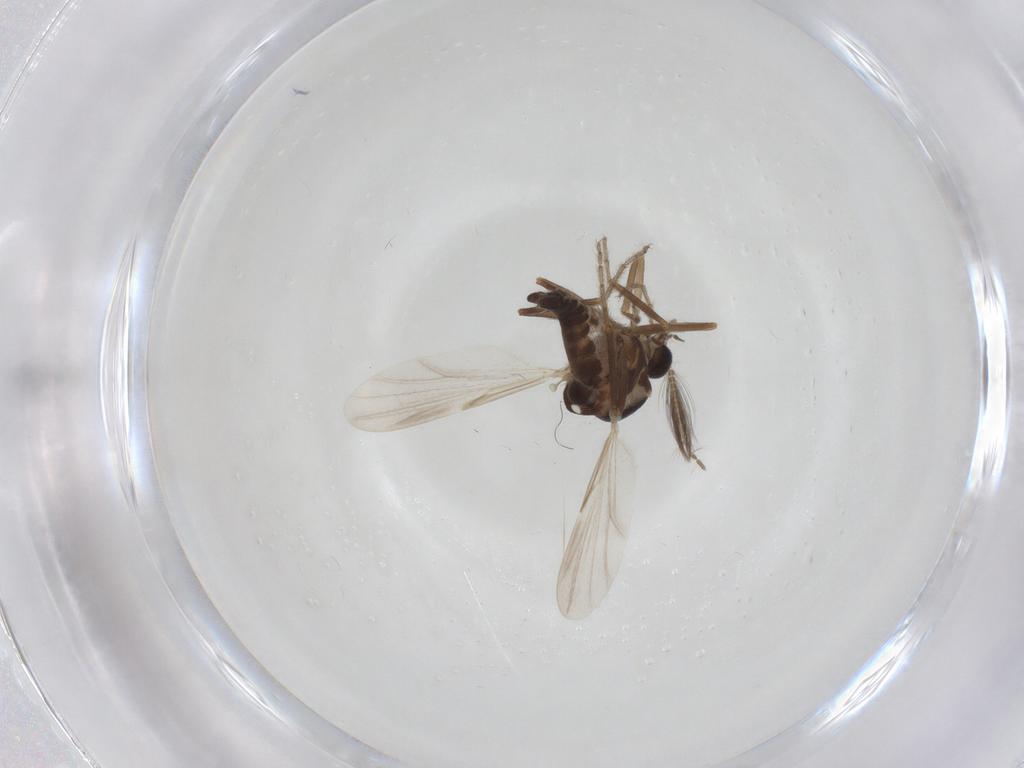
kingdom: Animalia
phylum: Arthropoda
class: Insecta
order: Diptera
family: Ceratopogonidae
